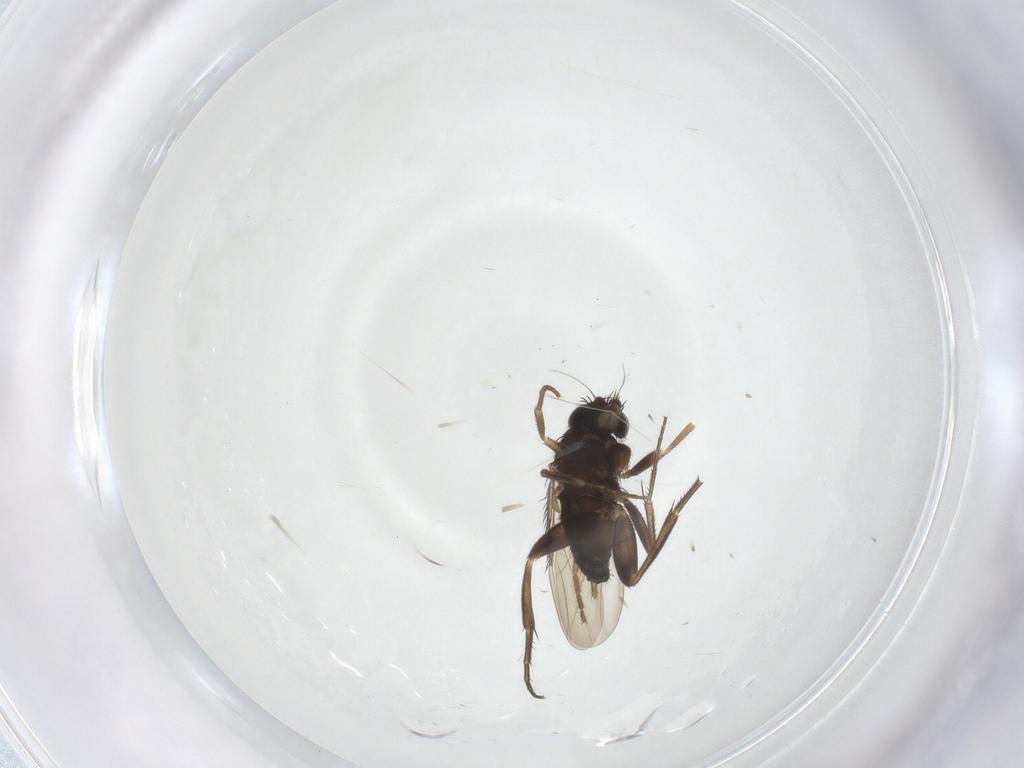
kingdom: Animalia
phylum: Arthropoda
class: Insecta
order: Diptera
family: Phoridae
